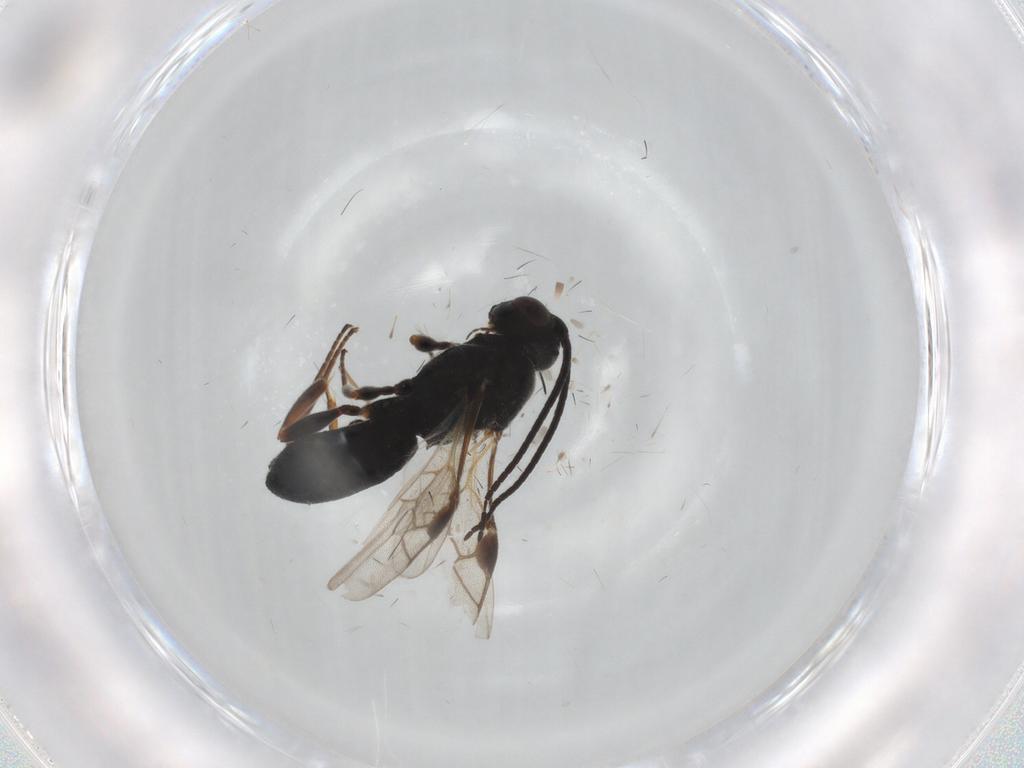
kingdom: Animalia
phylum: Arthropoda
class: Insecta
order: Hymenoptera
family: Braconidae
